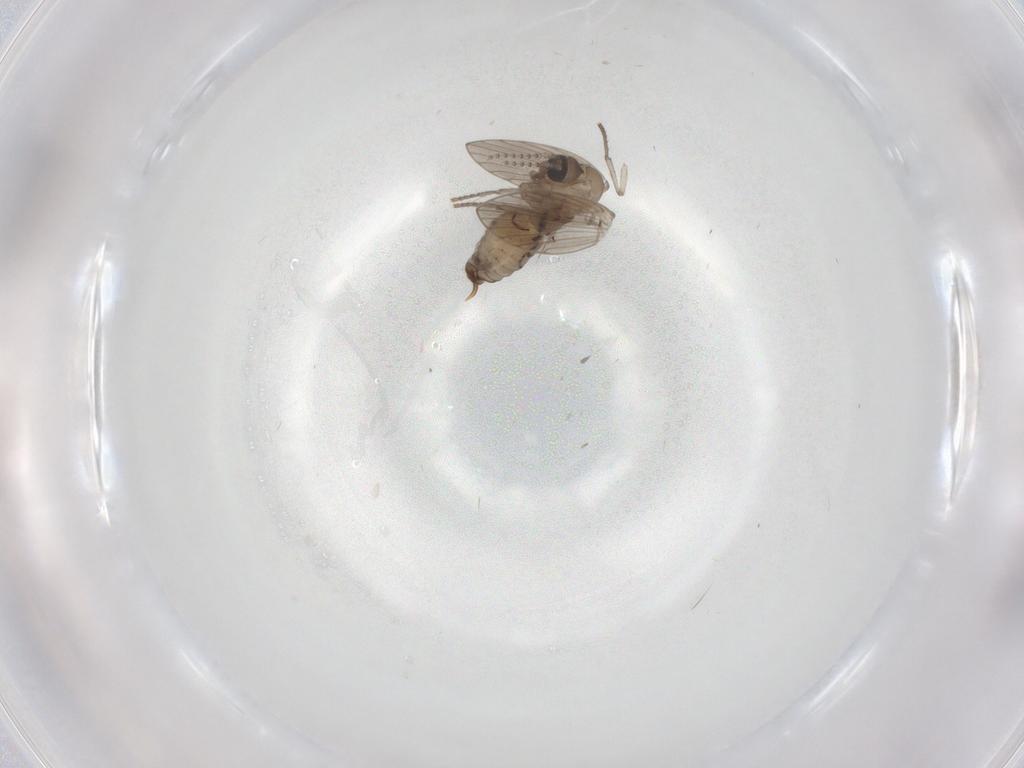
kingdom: Animalia
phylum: Arthropoda
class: Insecta
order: Diptera
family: Psychodidae
